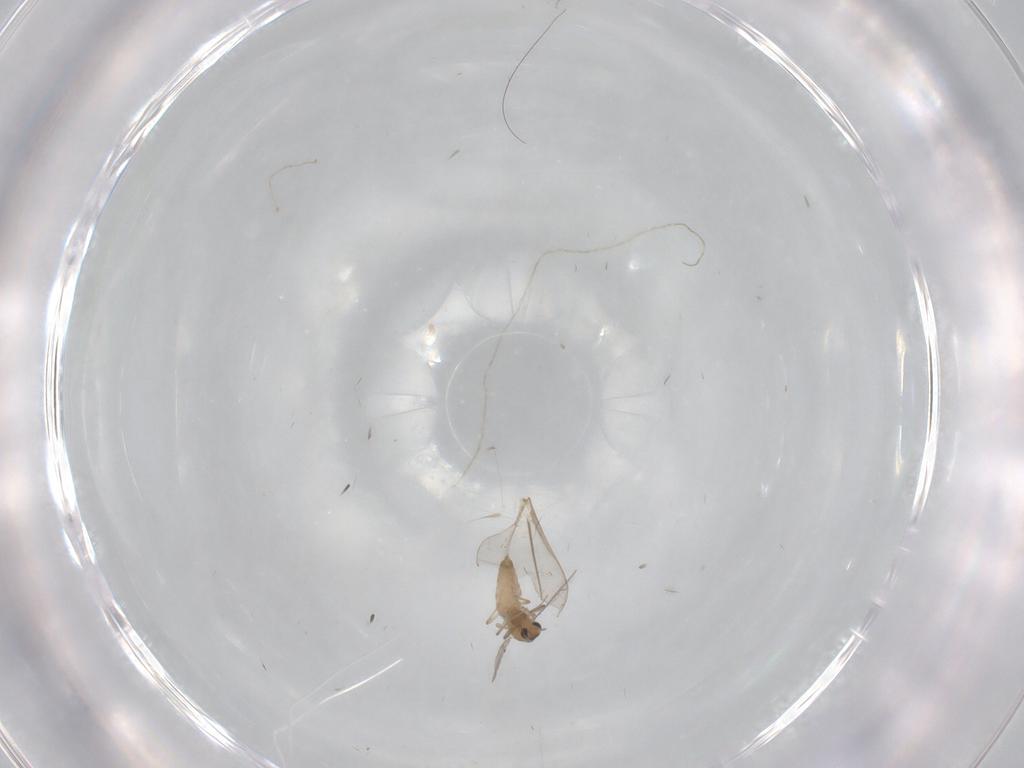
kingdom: Animalia
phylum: Arthropoda
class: Insecta
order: Diptera
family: Chironomidae
